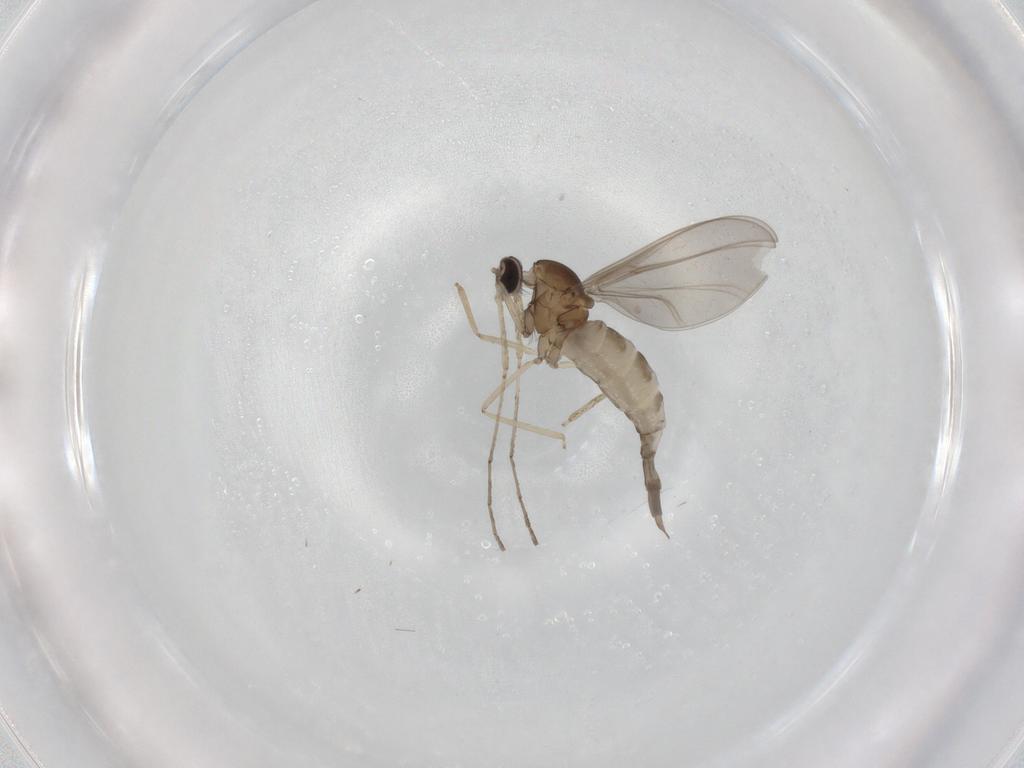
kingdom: Animalia
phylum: Arthropoda
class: Insecta
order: Diptera
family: Cecidomyiidae
